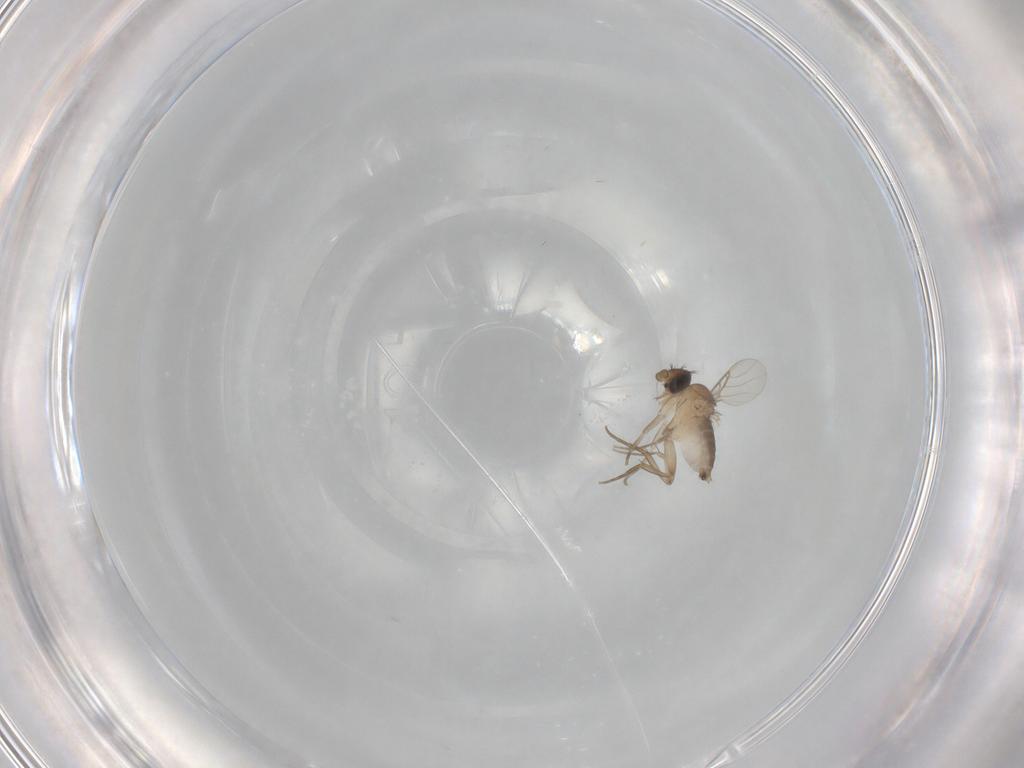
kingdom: Animalia
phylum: Arthropoda
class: Insecta
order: Diptera
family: Phoridae
